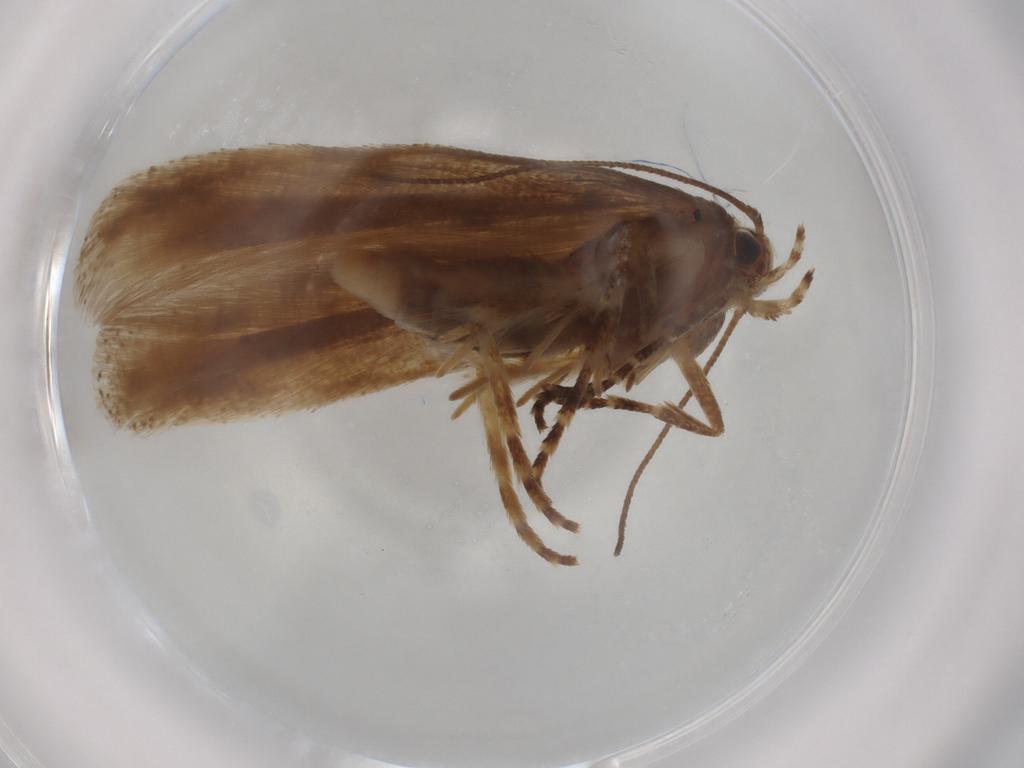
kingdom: Animalia
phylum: Arthropoda
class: Insecta
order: Lepidoptera
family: Gelechiidae
